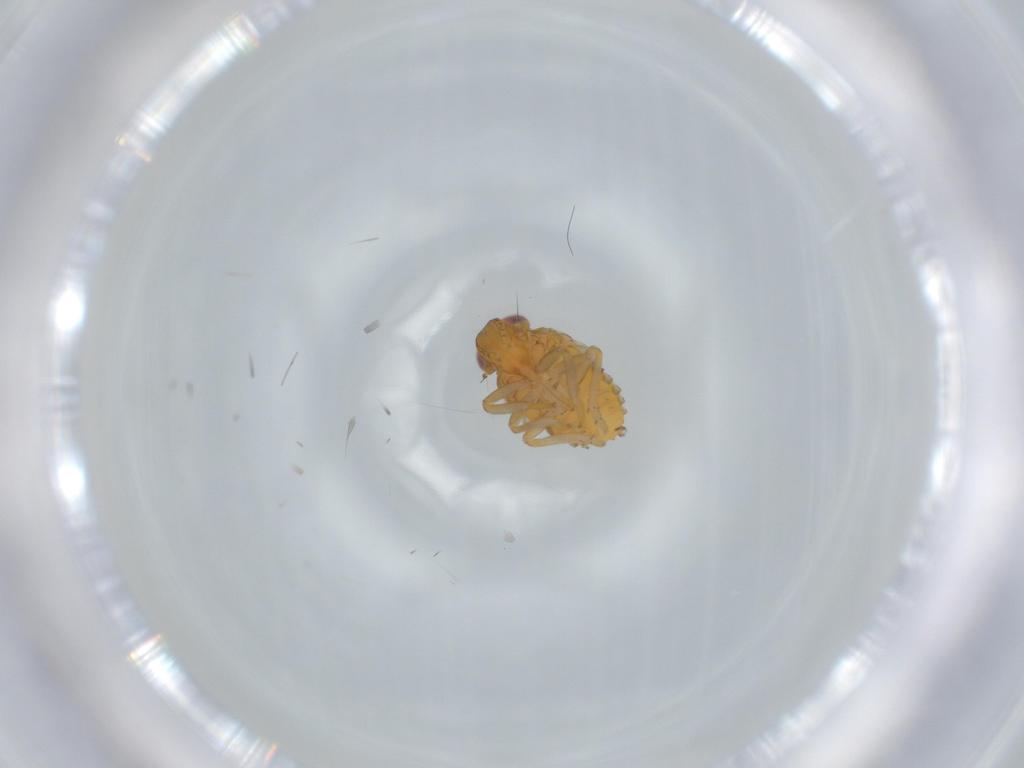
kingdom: Animalia
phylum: Arthropoda
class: Insecta
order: Hemiptera
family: Issidae
